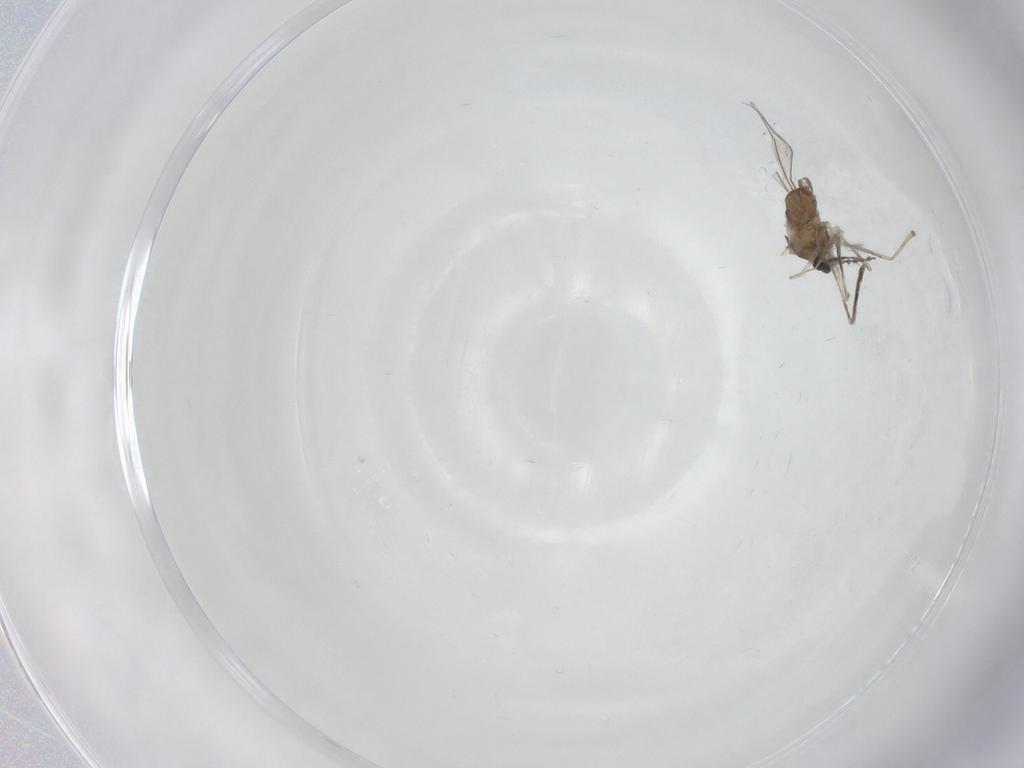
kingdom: Animalia
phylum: Arthropoda
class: Insecta
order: Diptera
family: Cecidomyiidae
